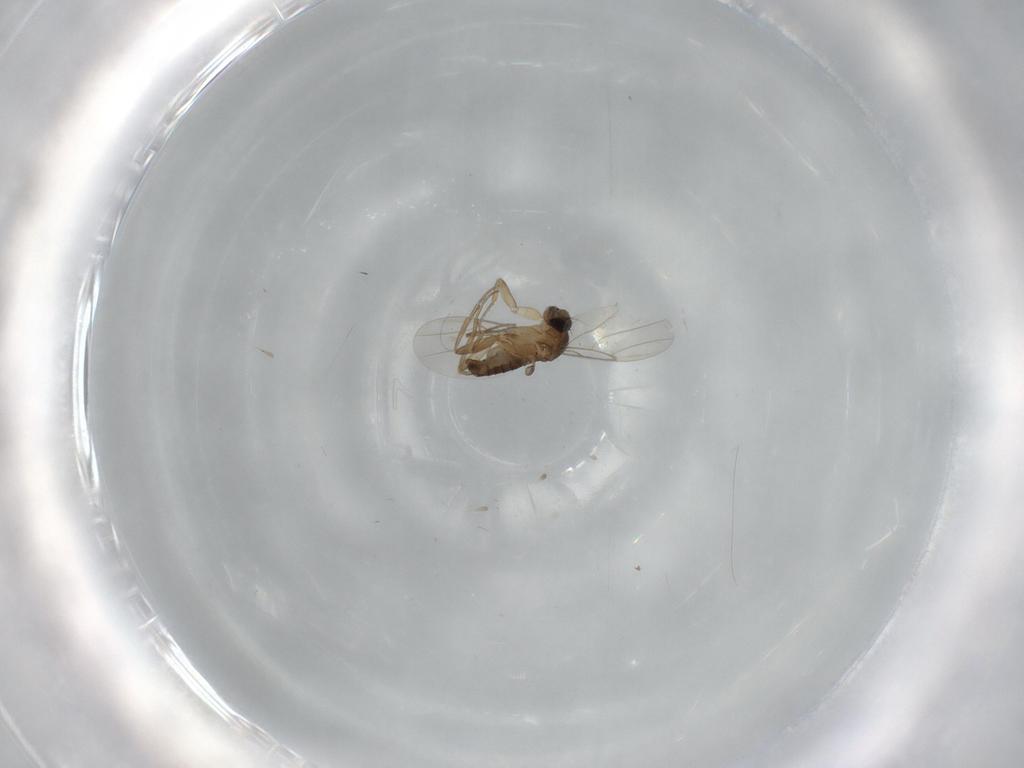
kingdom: Animalia
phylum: Arthropoda
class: Insecta
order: Diptera
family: Phoridae
